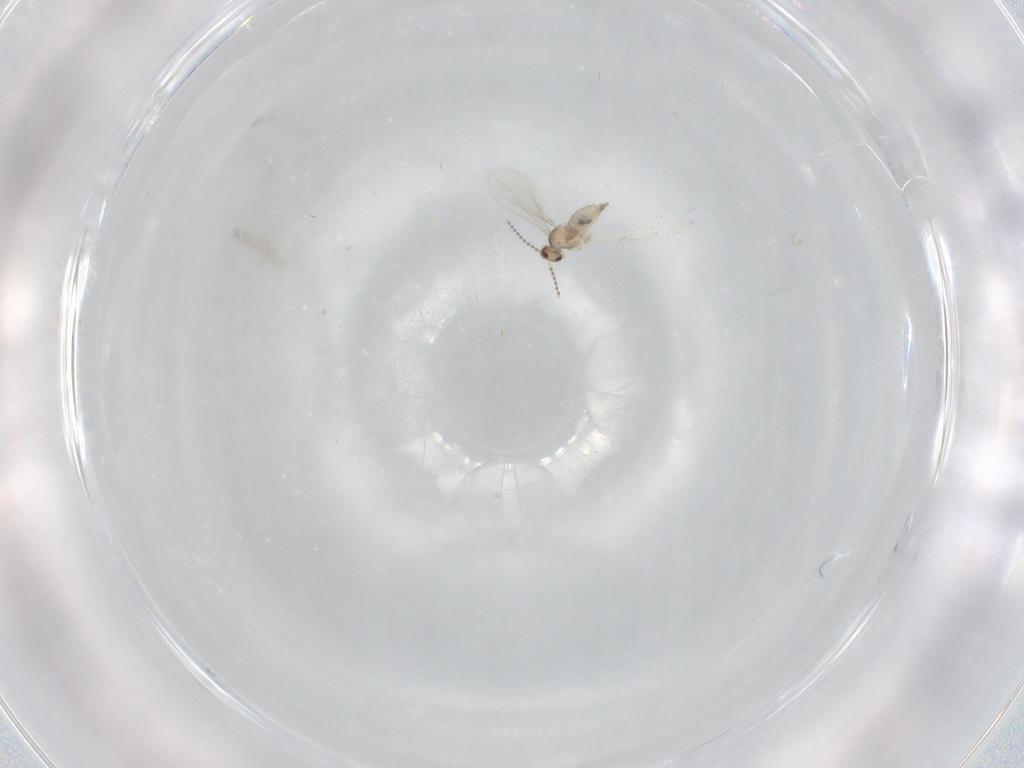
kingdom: Animalia
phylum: Arthropoda
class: Insecta
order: Diptera
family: Cecidomyiidae
